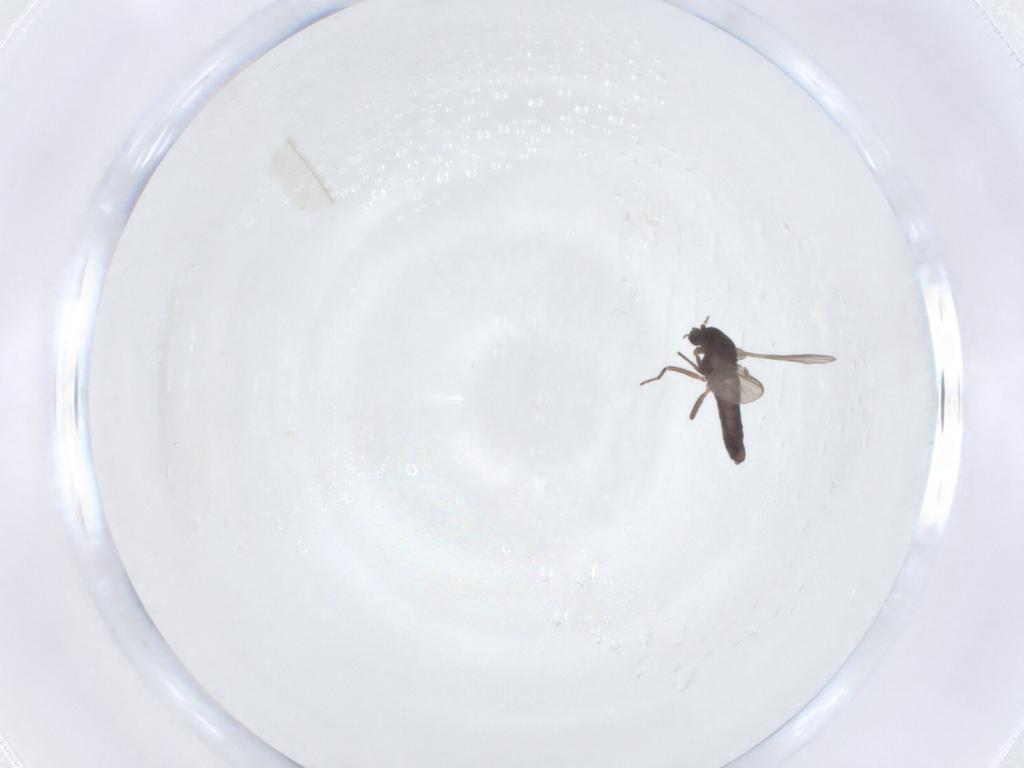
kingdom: Animalia
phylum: Arthropoda
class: Insecta
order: Diptera
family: Chironomidae
